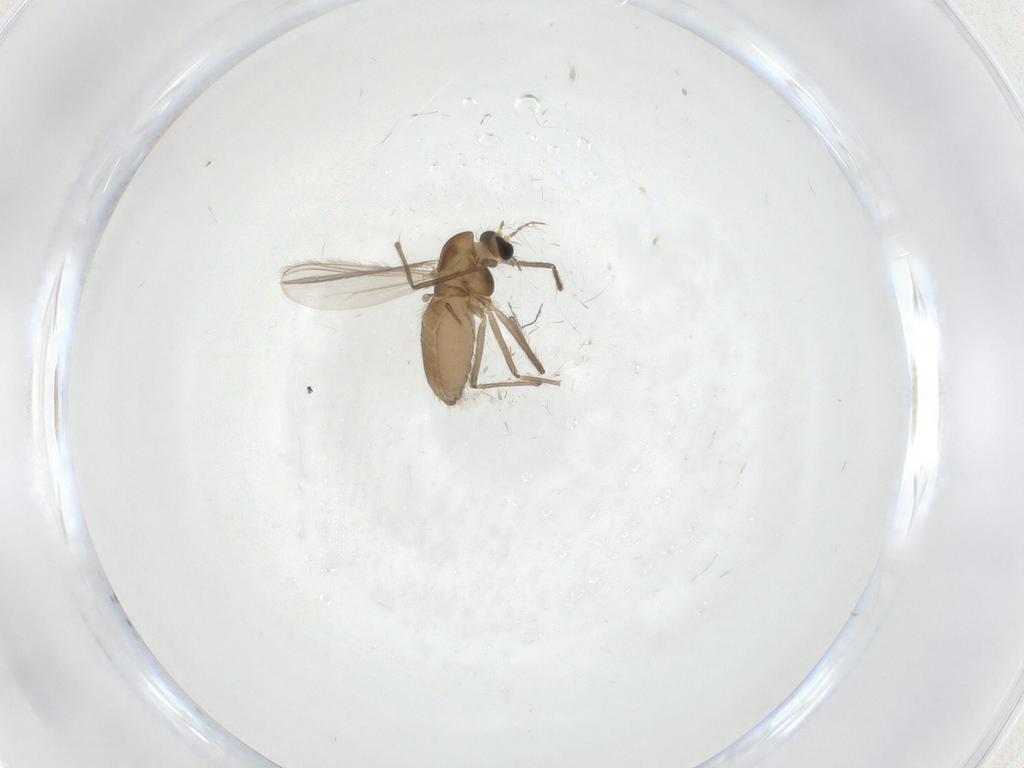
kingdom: Animalia
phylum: Arthropoda
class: Insecta
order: Diptera
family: Chironomidae
